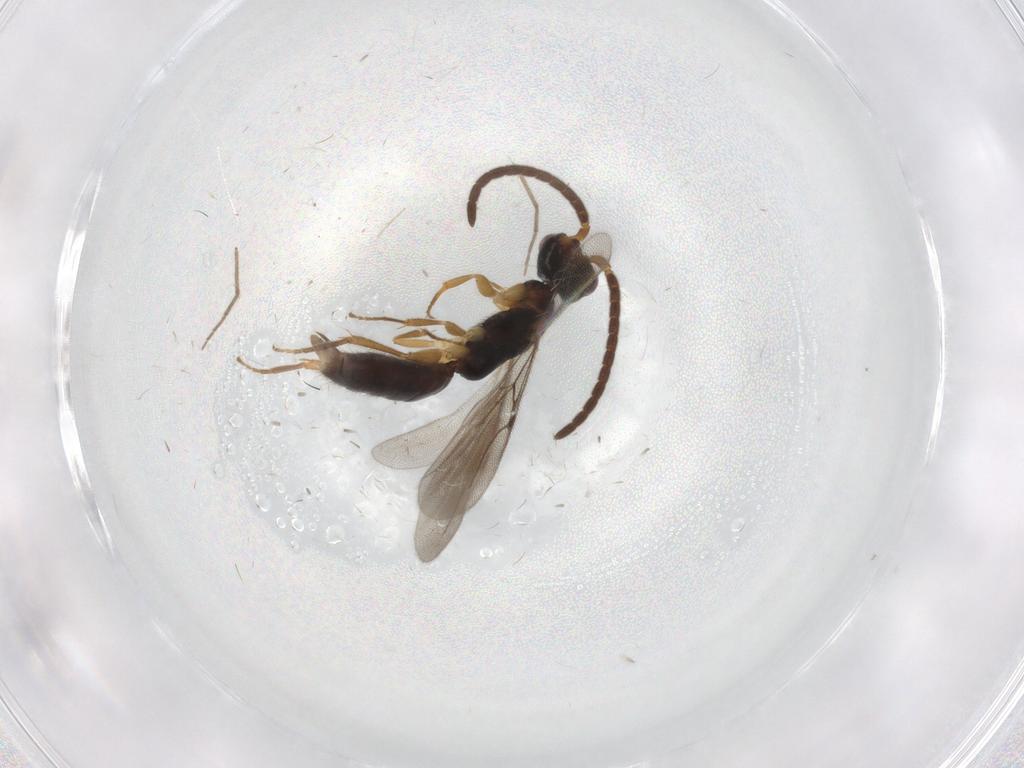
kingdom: Animalia
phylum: Arthropoda
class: Insecta
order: Hymenoptera
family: Bethylidae
